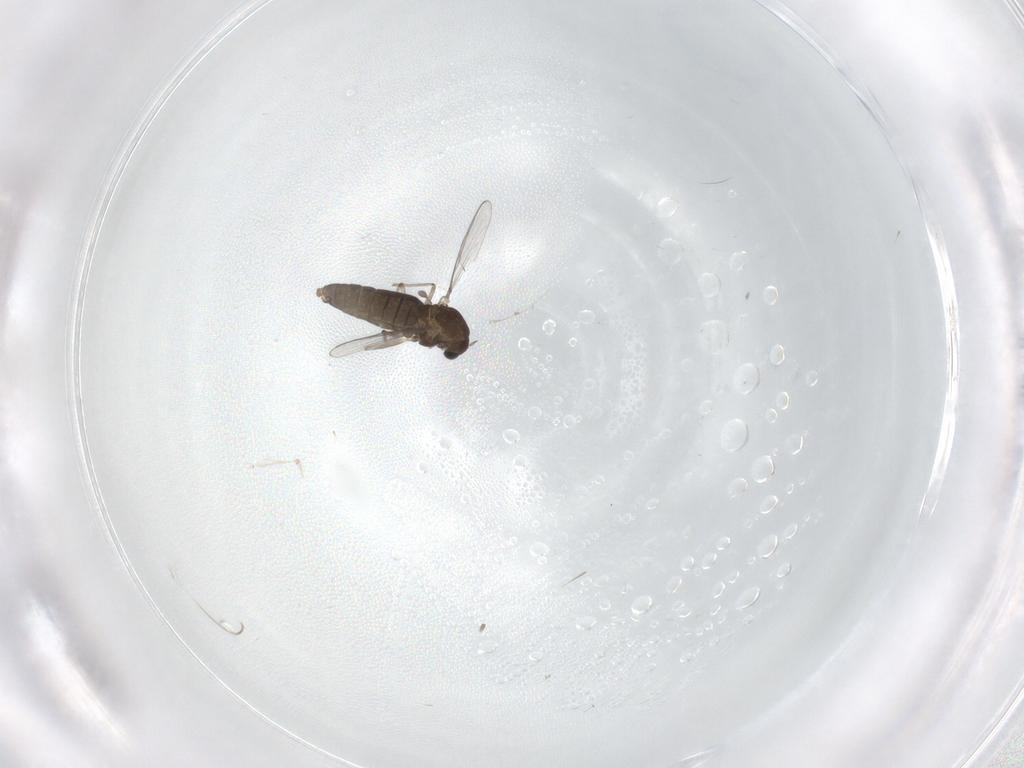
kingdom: Animalia
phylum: Arthropoda
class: Insecta
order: Diptera
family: Chironomidae
